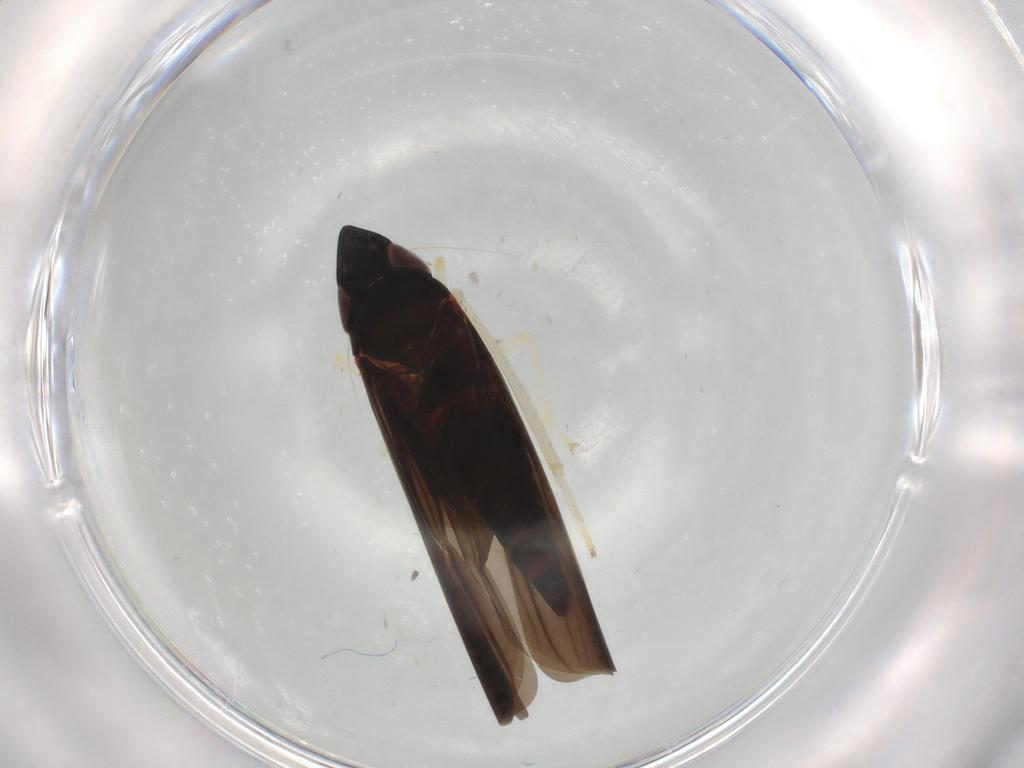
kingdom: Animalia
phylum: Arthropoda
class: Insecta
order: Hemiptera
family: Cicadellidae
